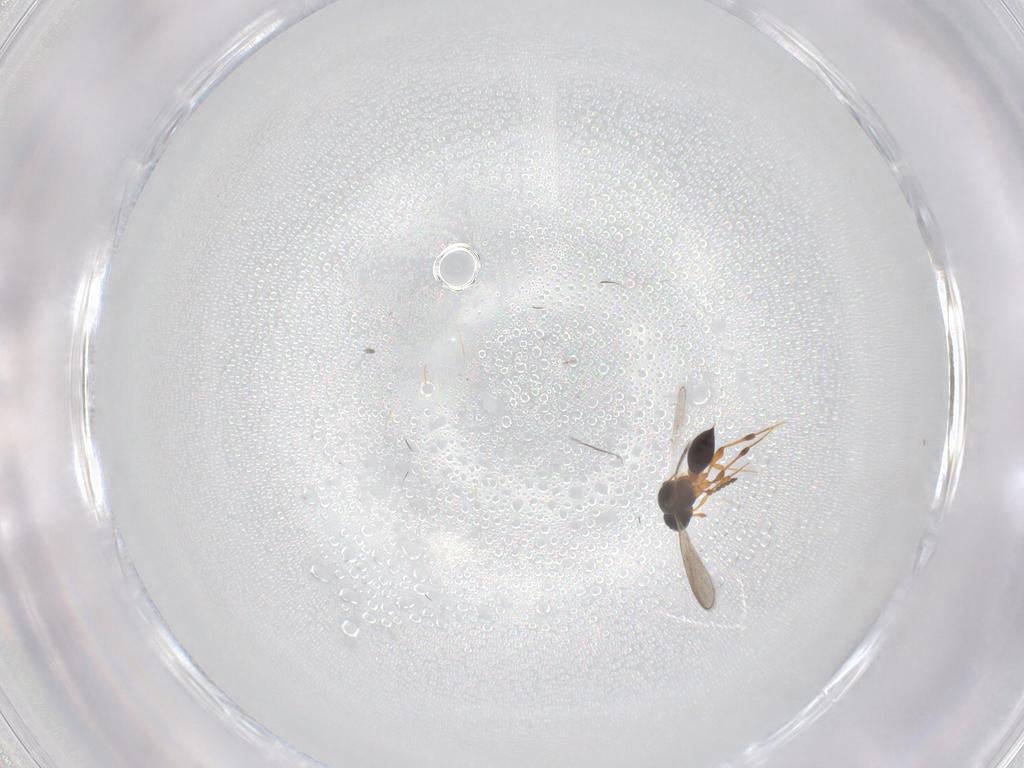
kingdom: Animalia
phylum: Arthropoda
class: Insecta
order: Hymenoptera
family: Platygastridae
